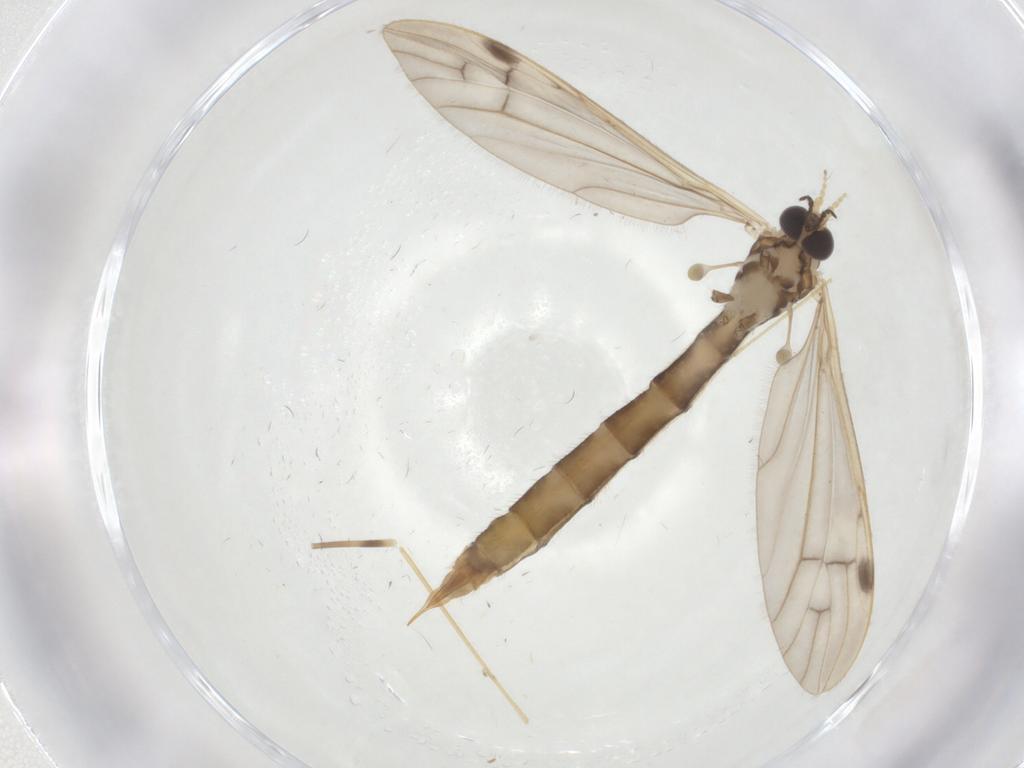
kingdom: Animalia
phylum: Arthropoda
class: Insecta
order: Diptera
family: Limoniidae
